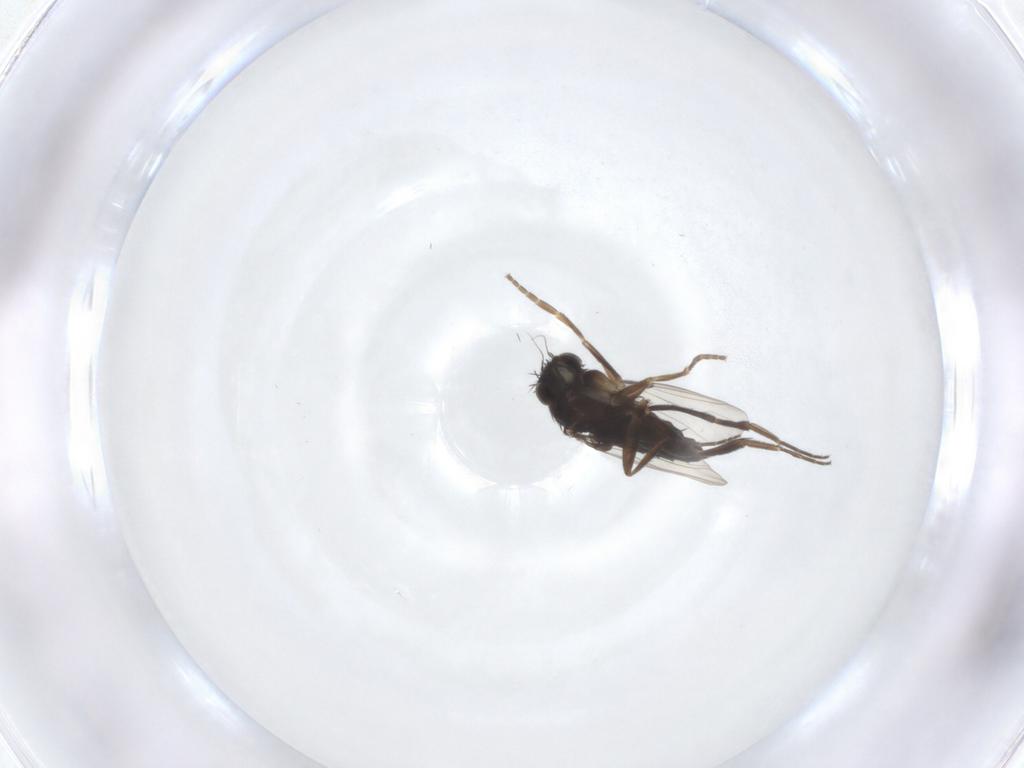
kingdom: Animalia
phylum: Arthropoda
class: Insecta
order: Diptera
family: Phoridae
